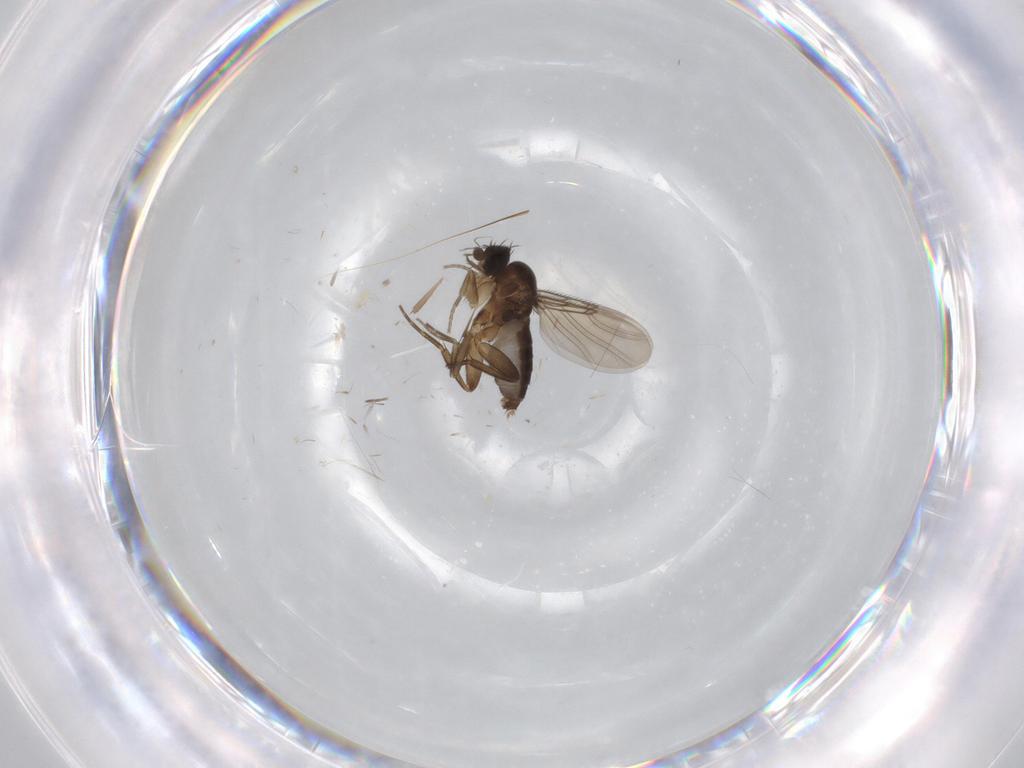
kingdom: Animalia
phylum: Arthropoda
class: Insecta
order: Diptera
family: Phoridae
